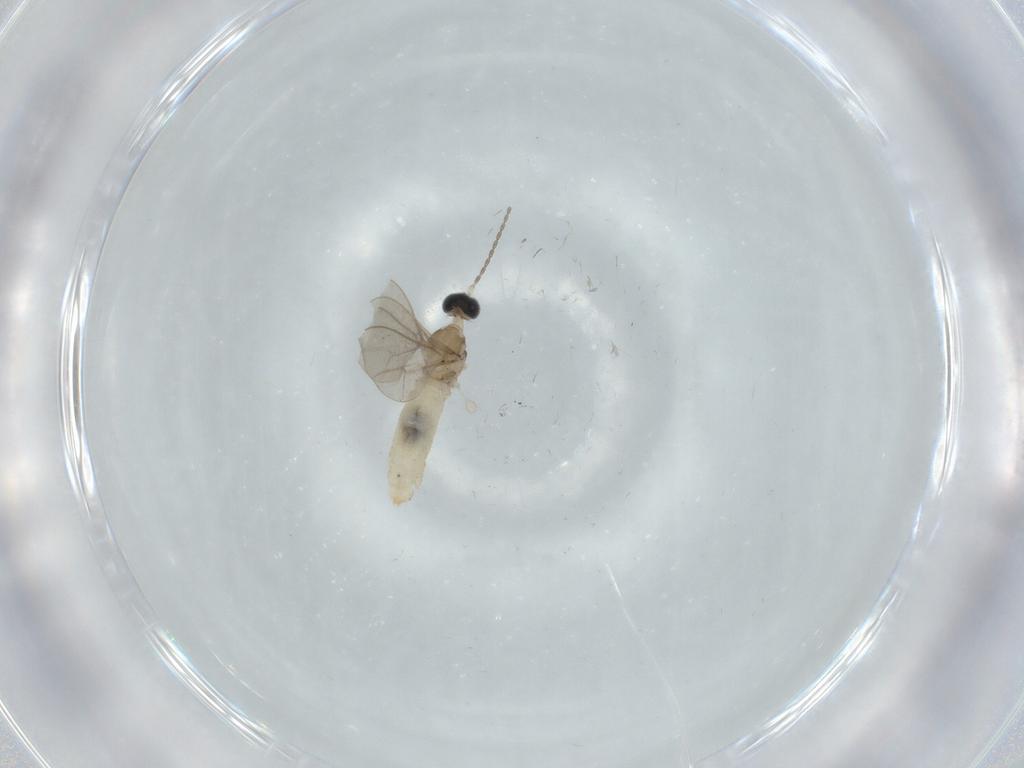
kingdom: Animalia
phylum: Arthropoda
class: Insecta
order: Diptera
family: Cecidomyiidae
